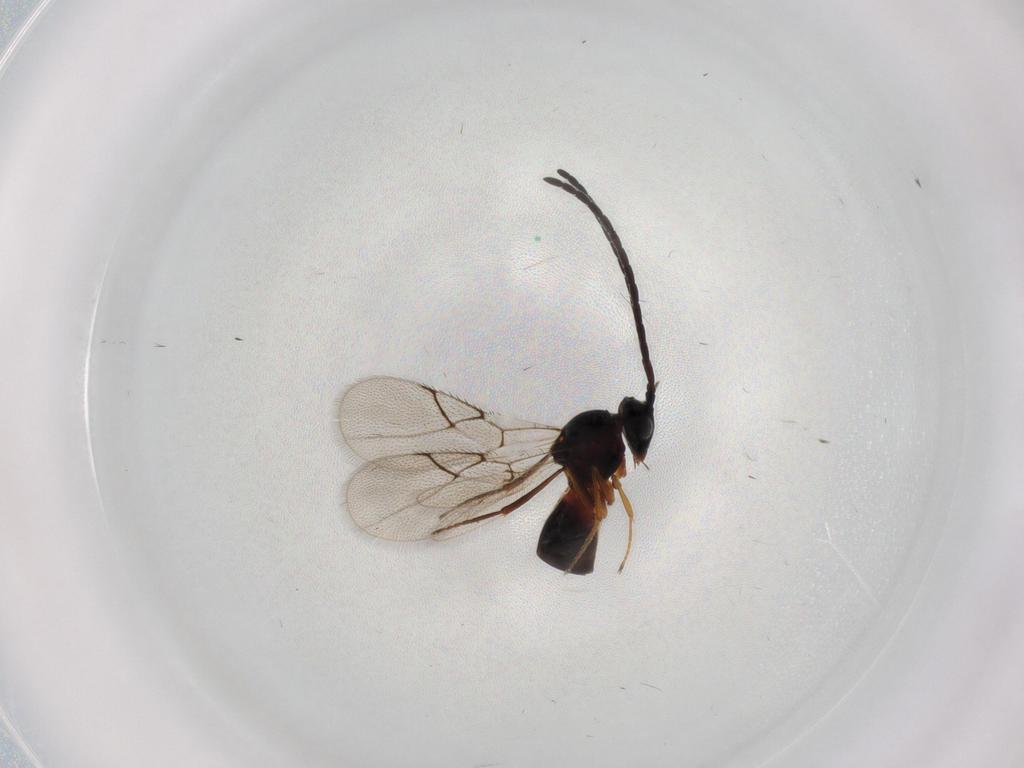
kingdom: Animalia
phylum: Arthropoda
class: Insecta
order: Hymenoptera
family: Figitidae
